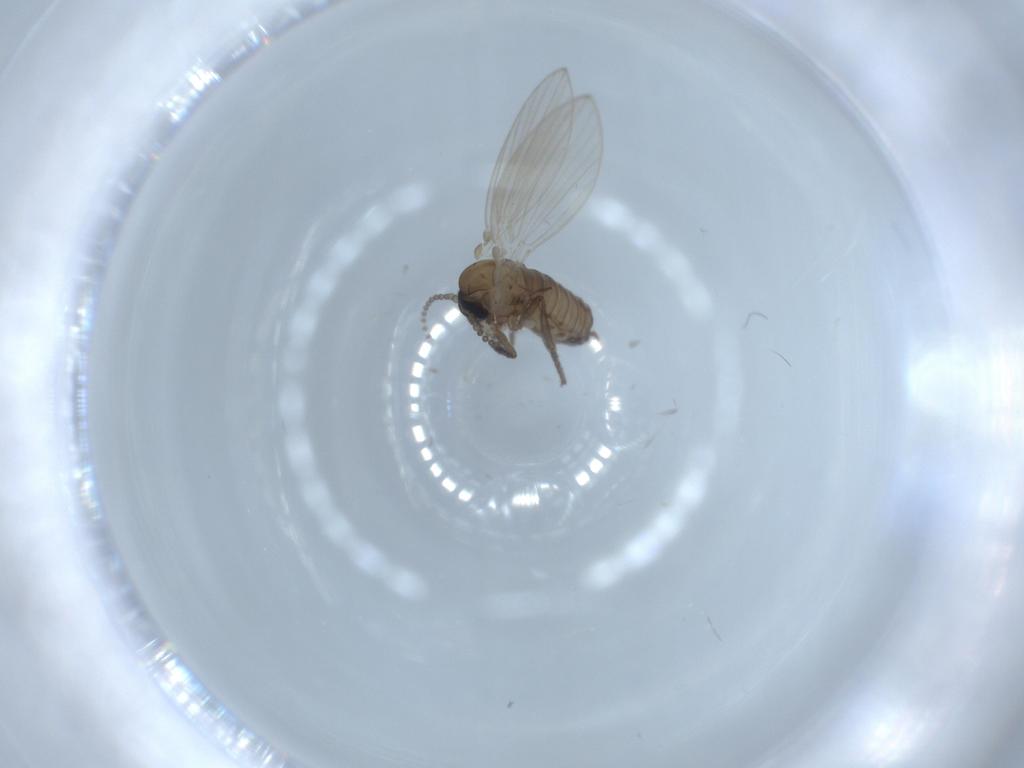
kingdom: Animalia
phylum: Arthropoda
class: Insecta
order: Diptera
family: Psychodidae
